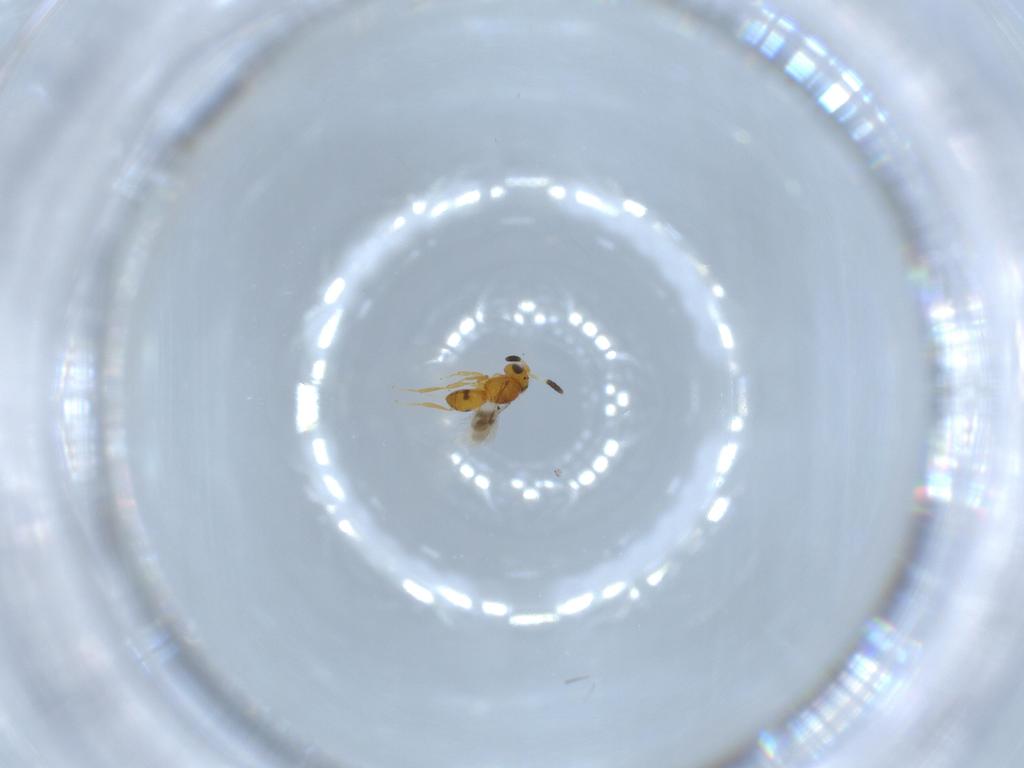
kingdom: Animalia
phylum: Arthropoda
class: Insecta
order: Hymenoptera
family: Scelionidae
